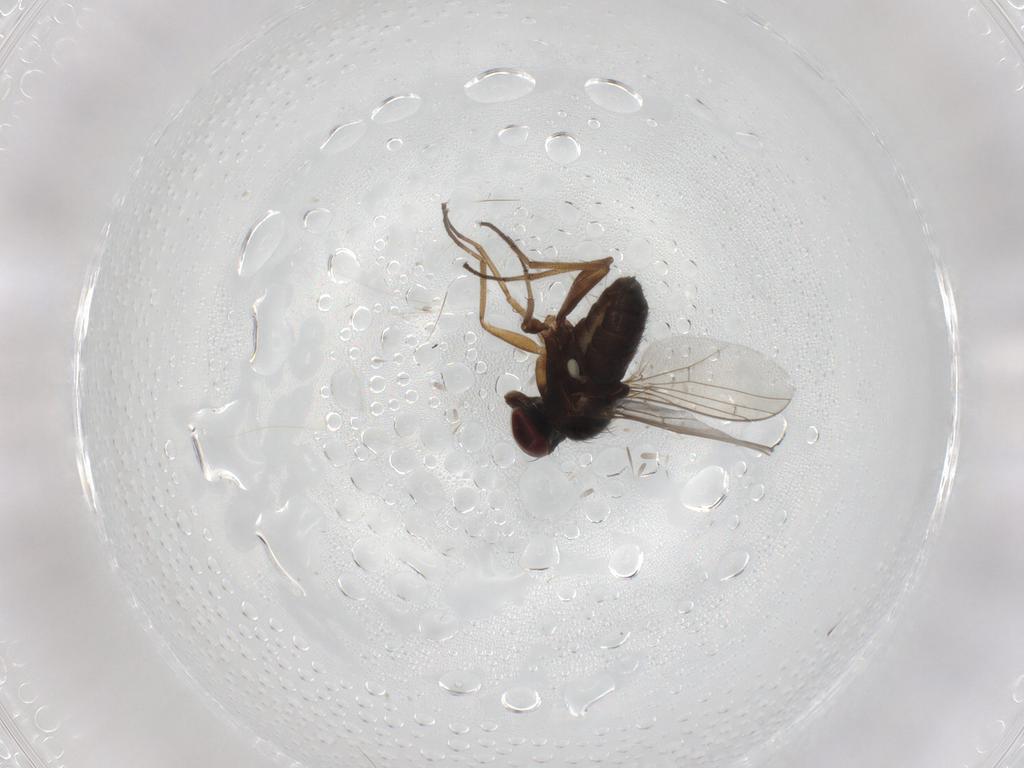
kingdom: Animalia
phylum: Arthropoda
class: Insecta
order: Diptera
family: Dolichopodidae
